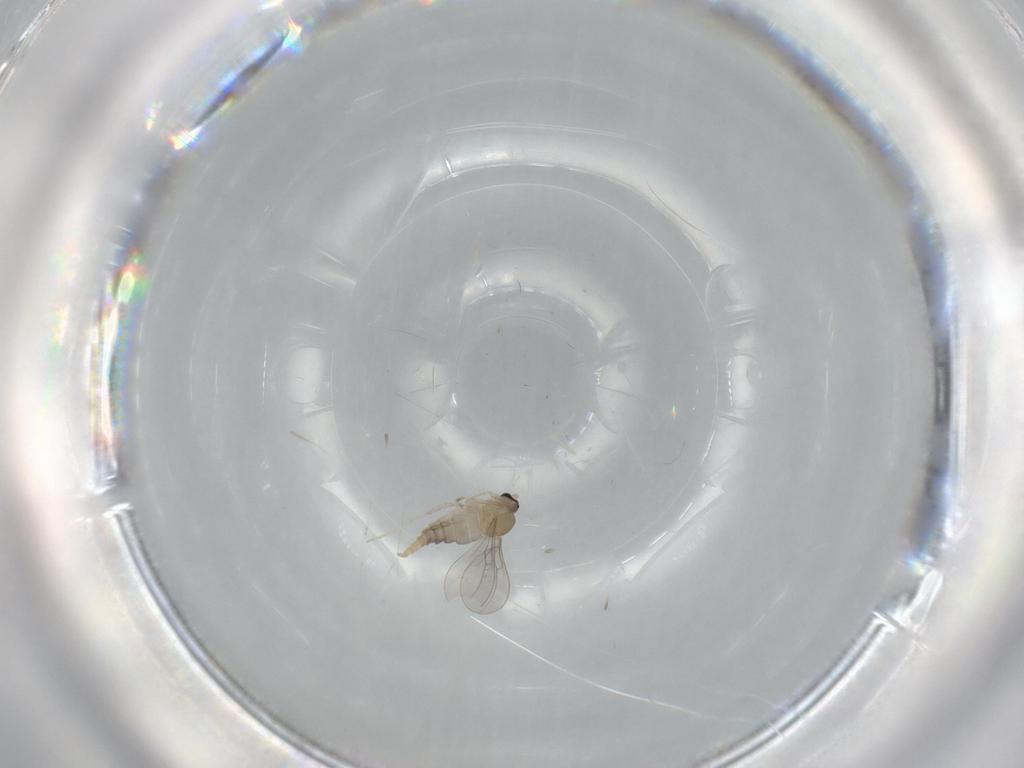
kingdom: Animalia
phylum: Arthropoda
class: Insecta
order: Diptera
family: Cecidomyiidae
